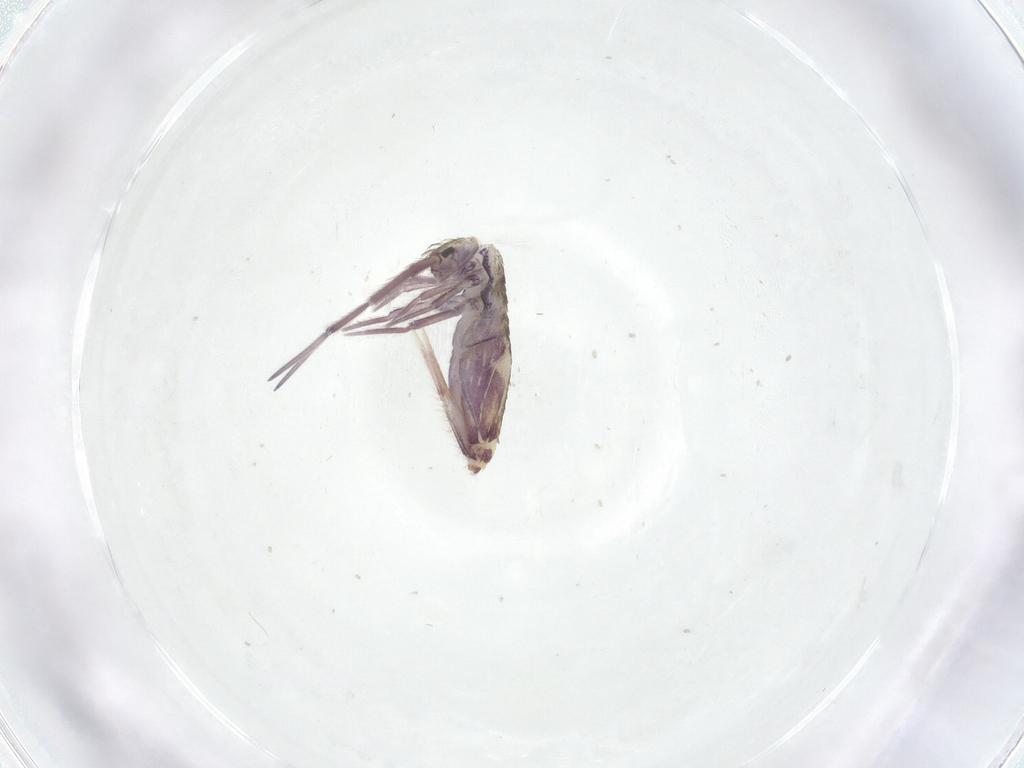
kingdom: Animalia
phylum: Arthropoda
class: Collembola
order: Entomobryomorpha
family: Entomobryidae
